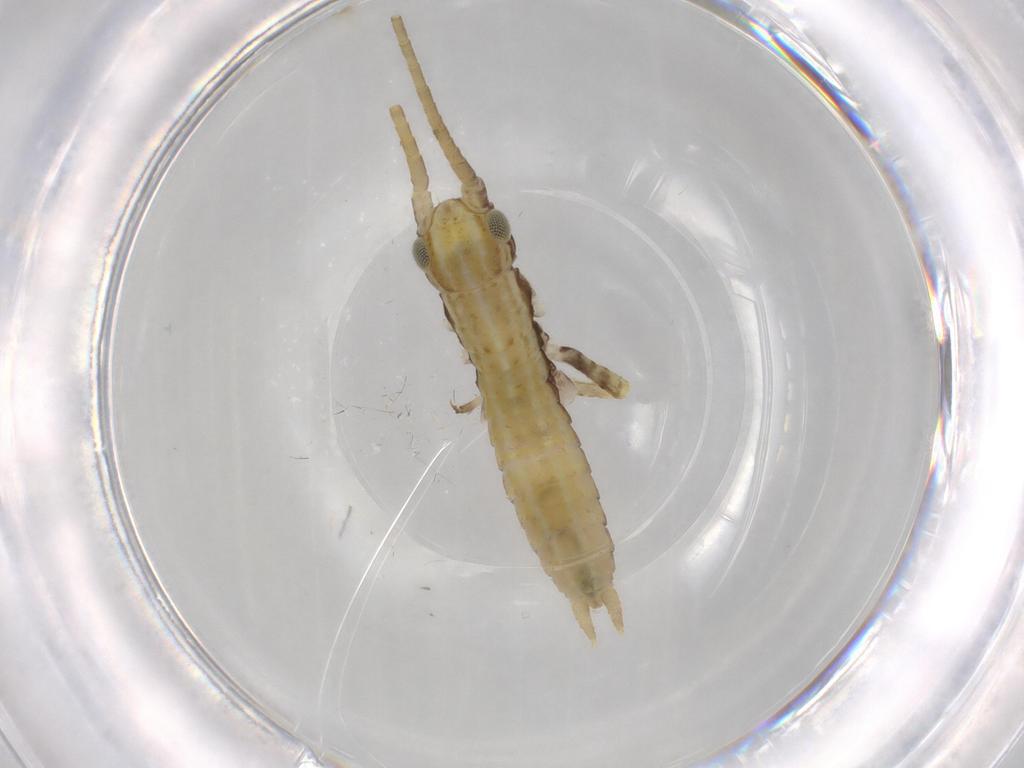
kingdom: Animalia
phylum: Arthropoda
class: Insecta
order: Orthoptera
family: Gryllidae
